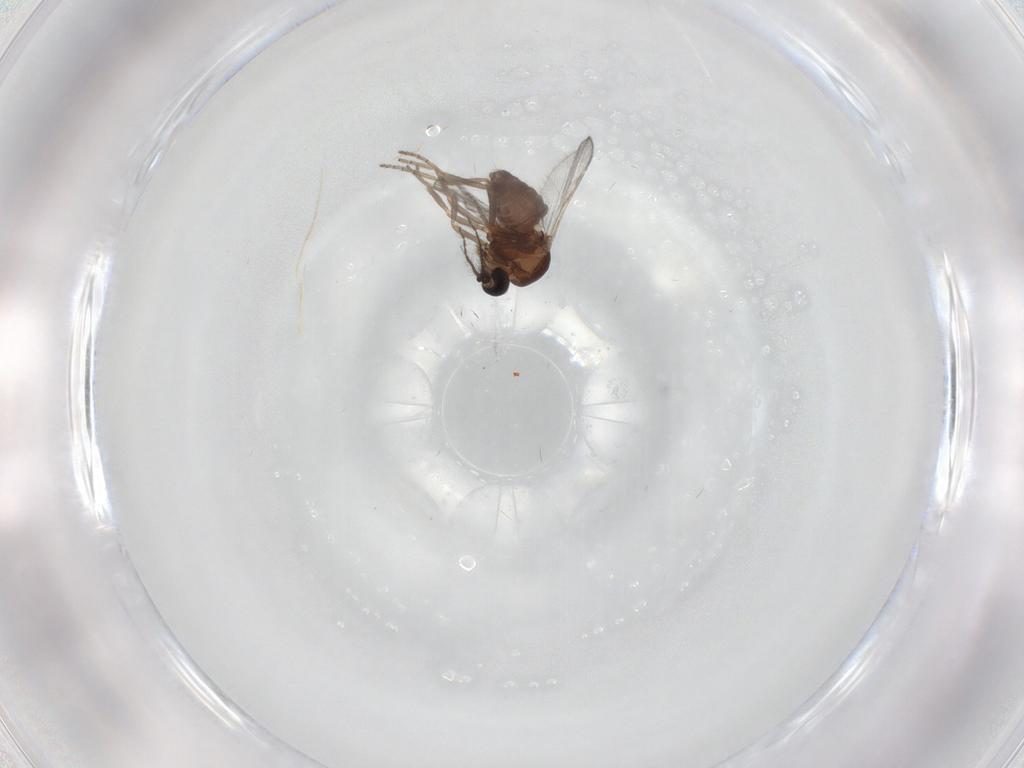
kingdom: Animalia
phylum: Arthropoda
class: Insecta
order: Diptera
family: Ceratopogonidae
